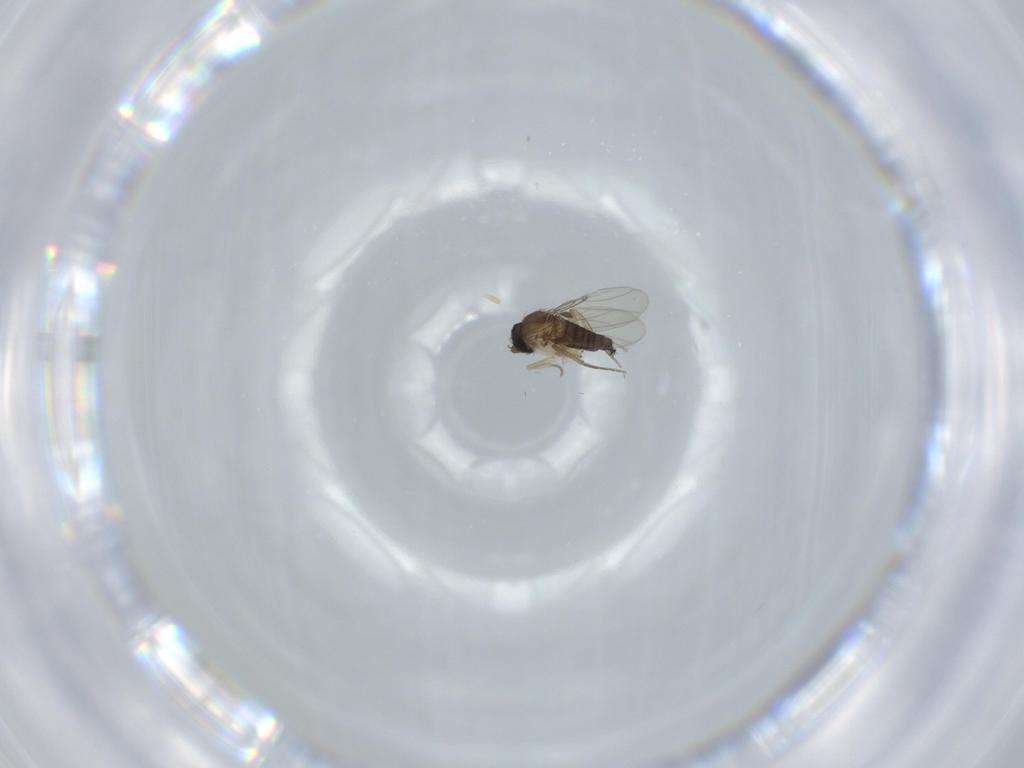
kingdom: Animalia
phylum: Arthropoda
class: Insecta
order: Diptera
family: Phoridae
